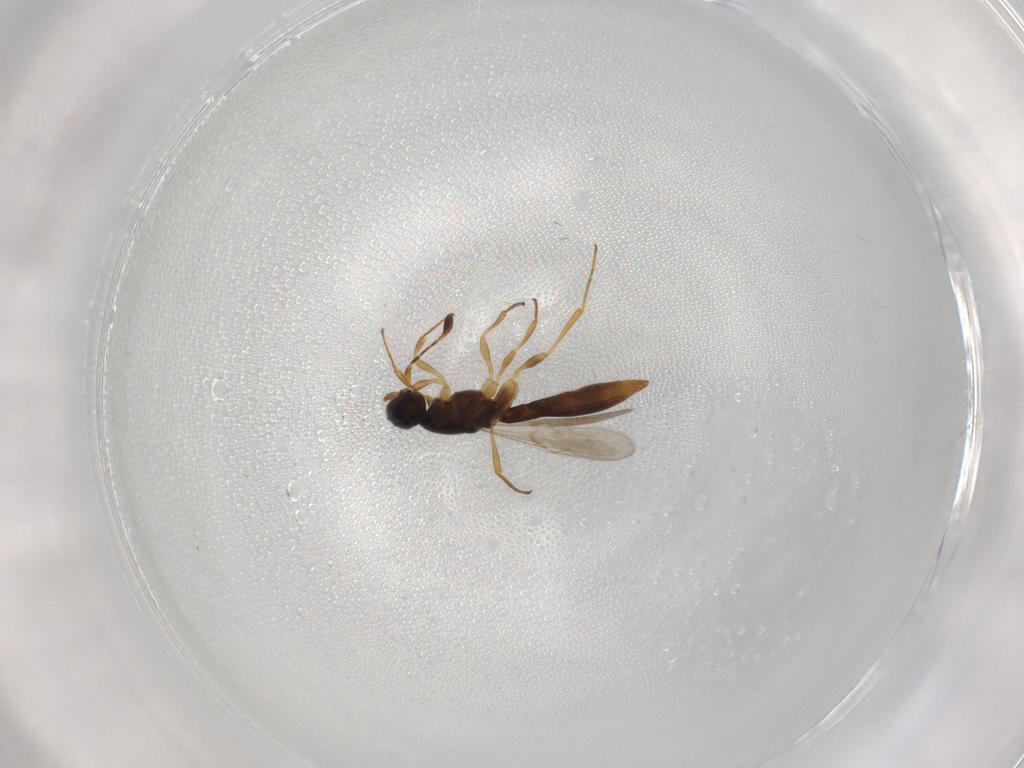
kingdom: Animalia
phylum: Arthropoda
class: Insecta
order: Hymenoptera
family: Scelionidae
